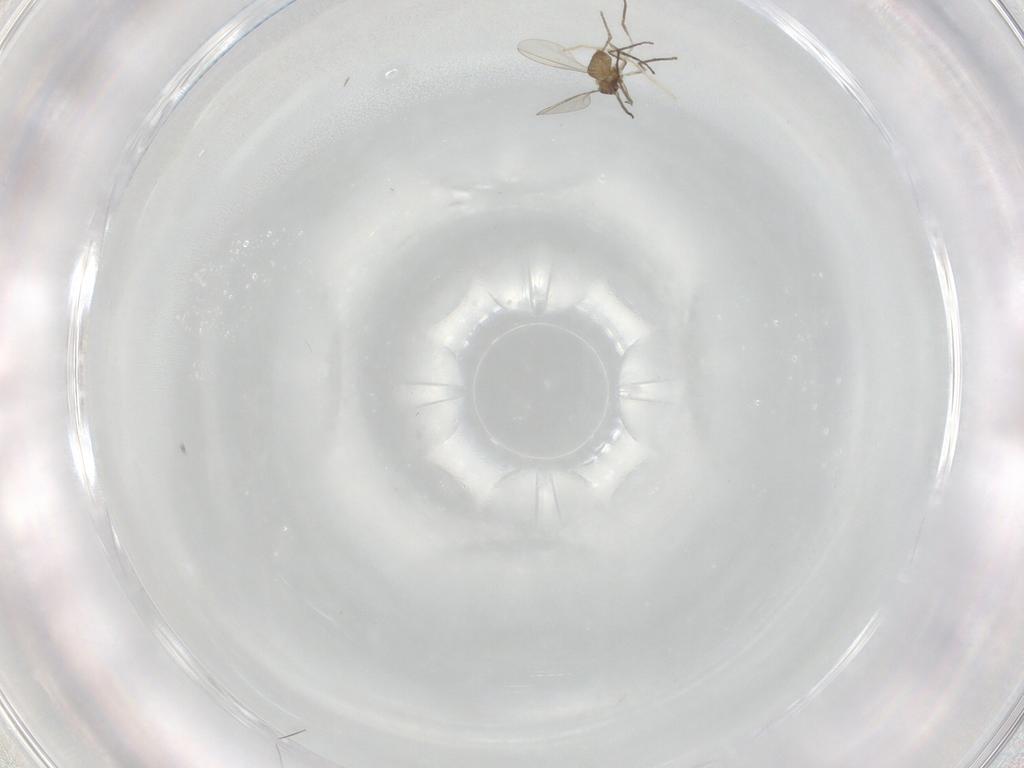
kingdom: Animalia
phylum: Arthropoda
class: Insecta
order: Diptera
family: Cecidomyiidae
